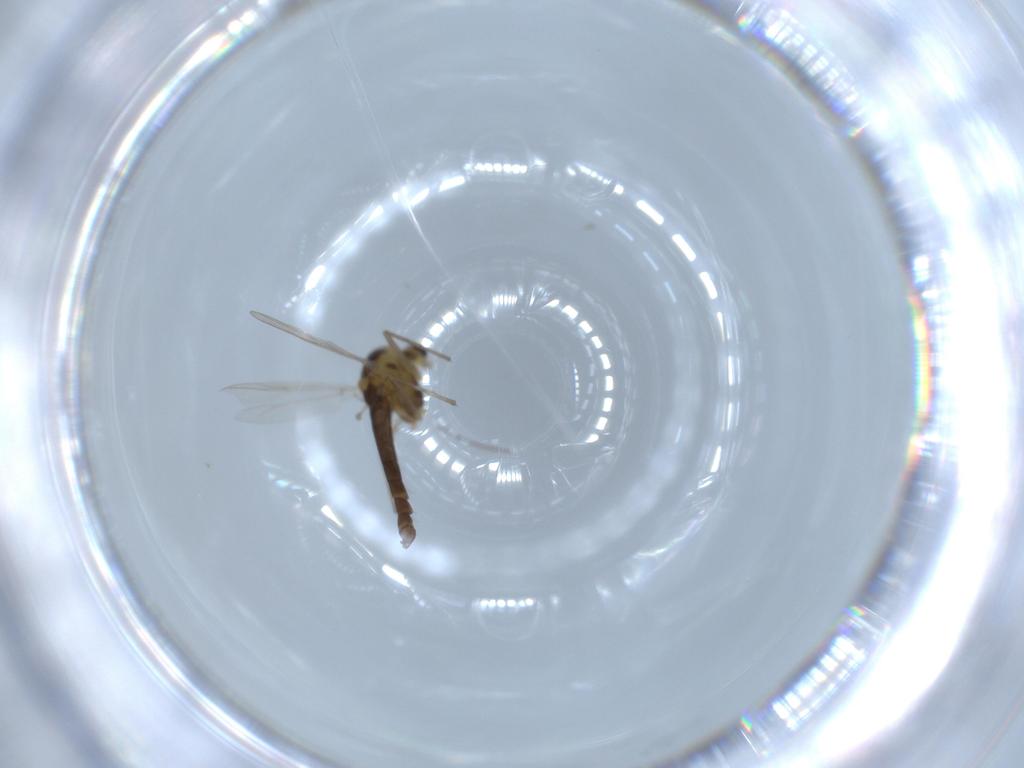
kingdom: Animalia
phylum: Arthropoda
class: Insecta
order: Diptera
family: Chironomidae
